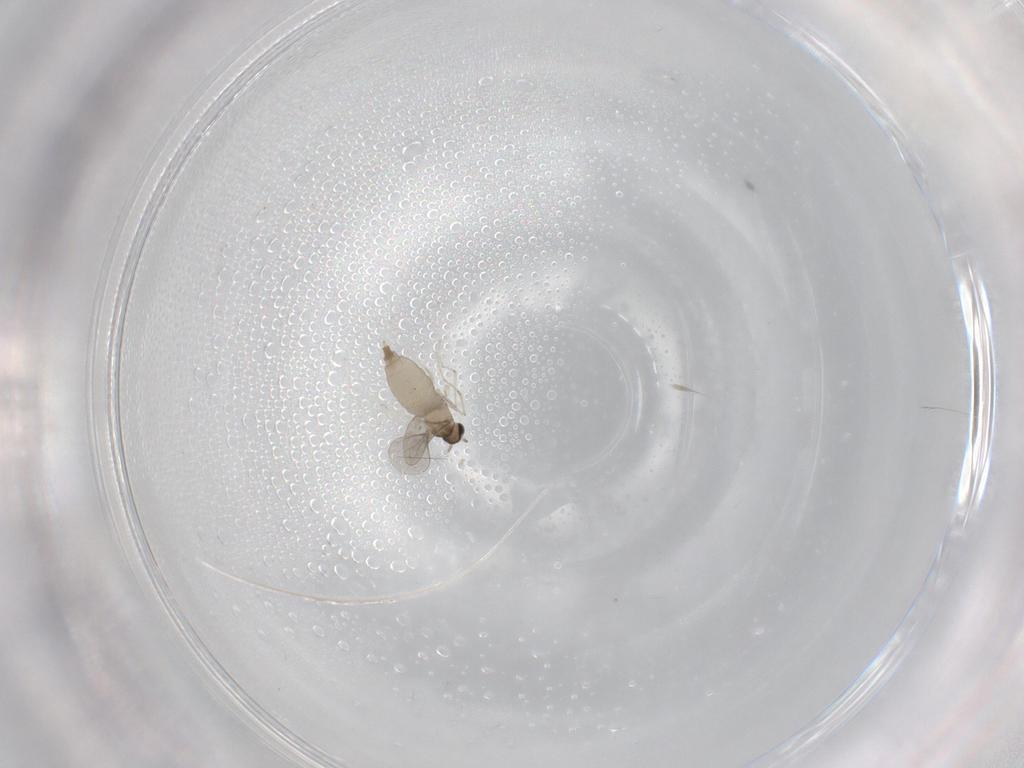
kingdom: Animalia
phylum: Arthropoda
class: Insecta
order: Diptera
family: Cecidomyiidae
